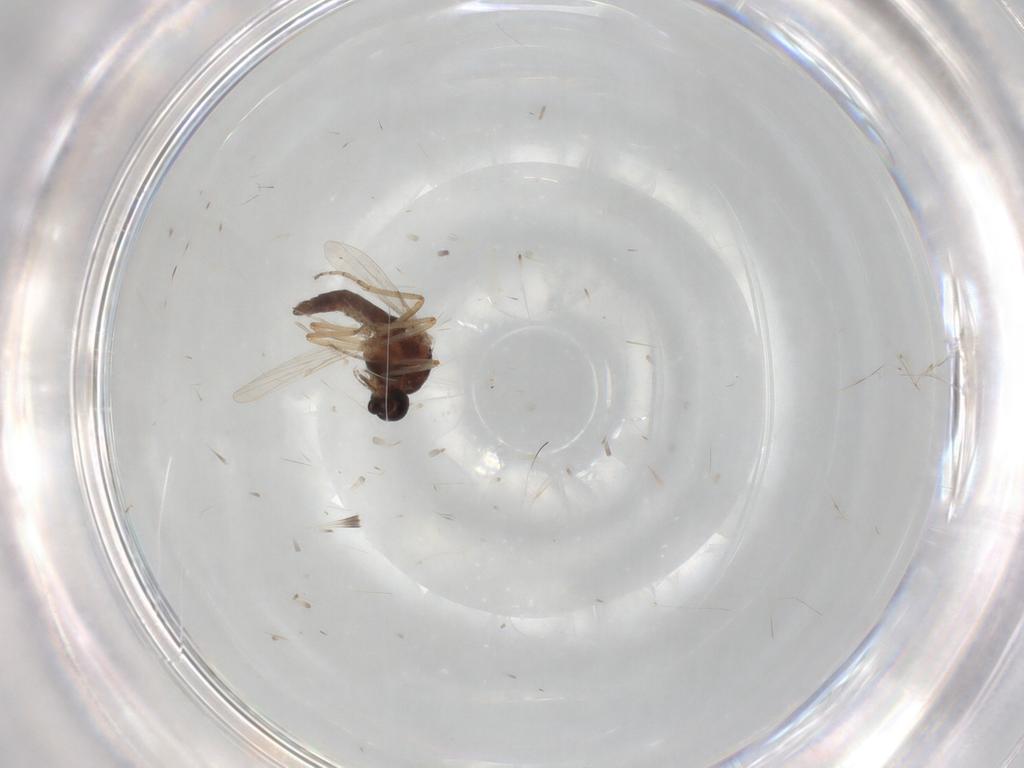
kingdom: Animalia
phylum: Arthropoda
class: Insecta
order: Diptera
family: Ceratopogonidae
